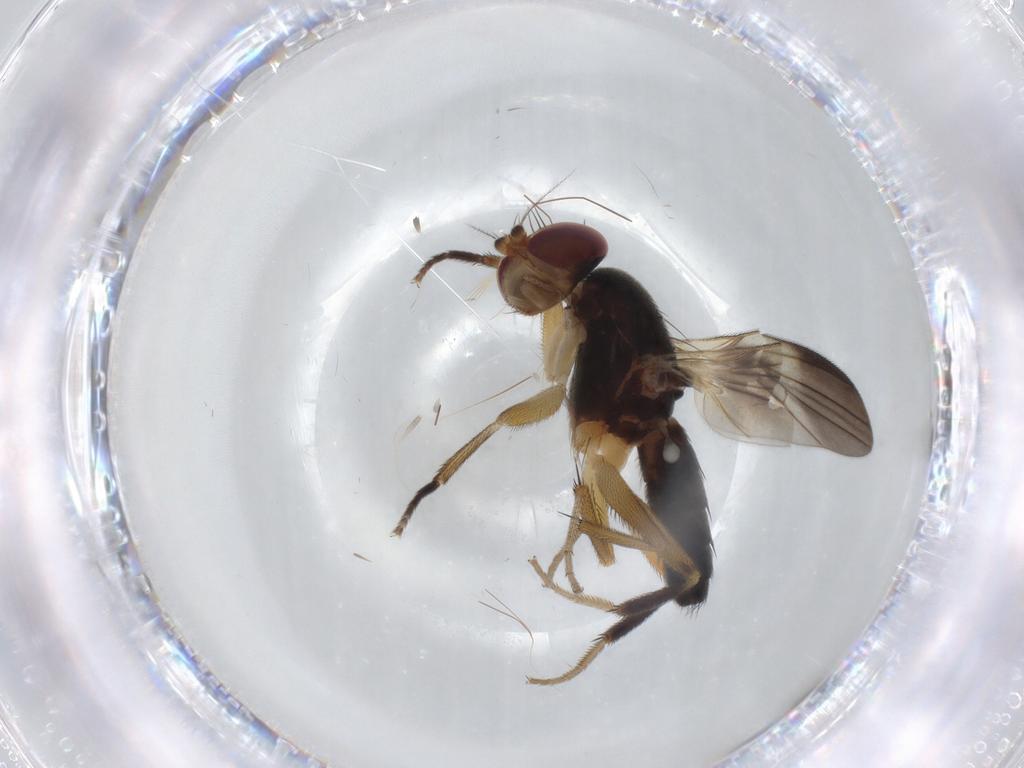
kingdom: Animalia
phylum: Arthropoda
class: Insecta
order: Diptera
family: Clusiidae
